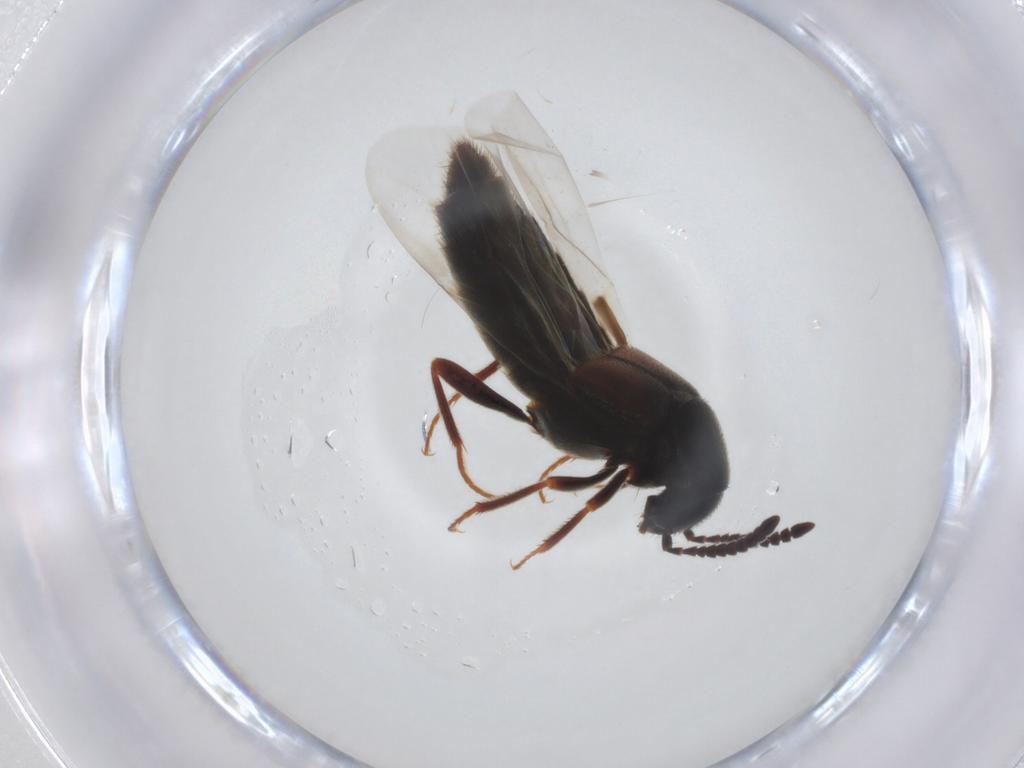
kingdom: Animalia
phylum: Arthropoda
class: Insecta
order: Coleoptera
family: Staphylinidae
